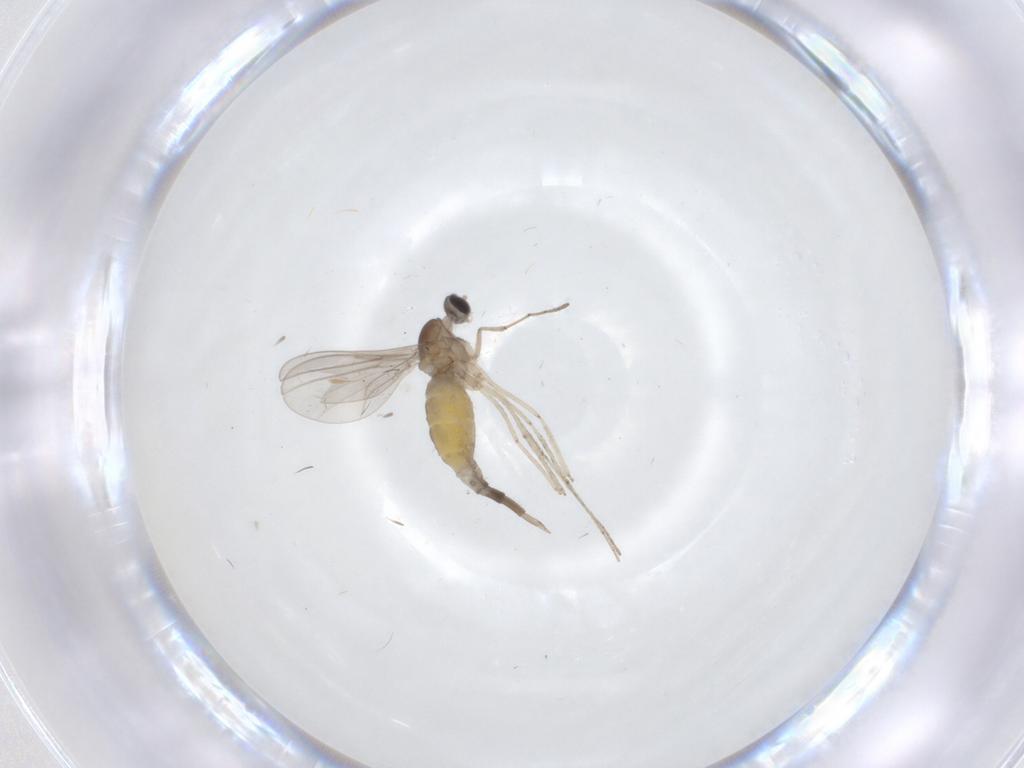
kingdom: Animalia
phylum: Arthropoda
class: Insecta
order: Diptera
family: Cecidomyiidae
